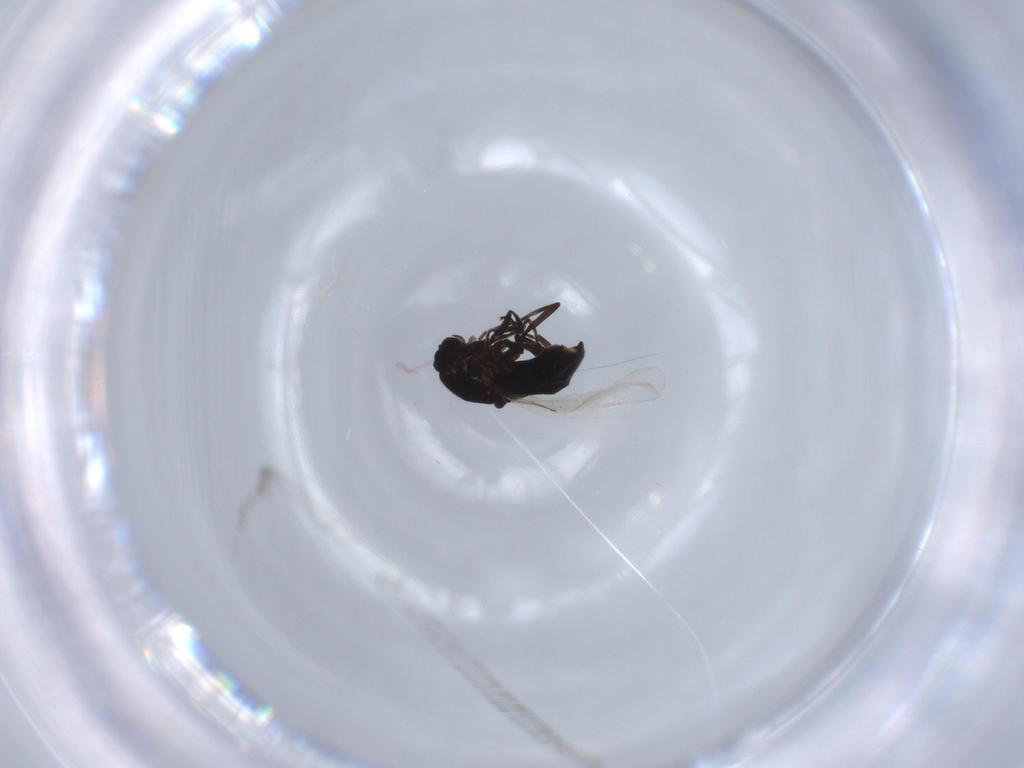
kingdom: Animalia
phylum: Arthropoda
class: Insecta
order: Diptera
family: Scatopsidae
